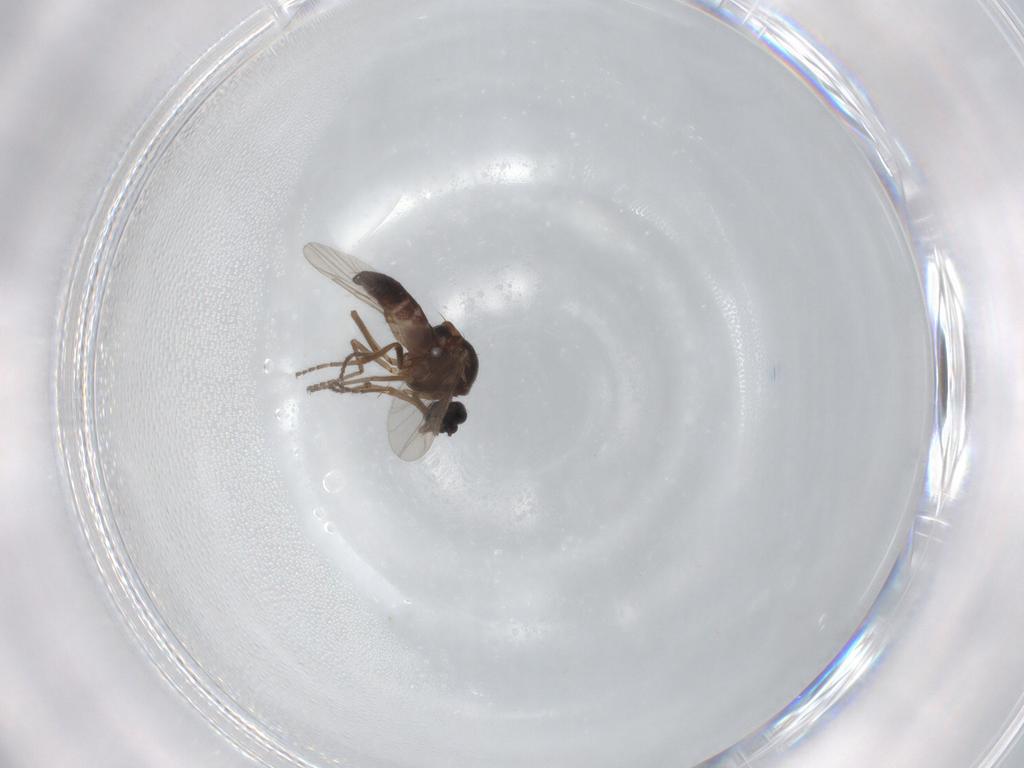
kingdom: Animalia
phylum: Arthropoda
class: Insecta
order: Diptera
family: Ceratopogonidae
